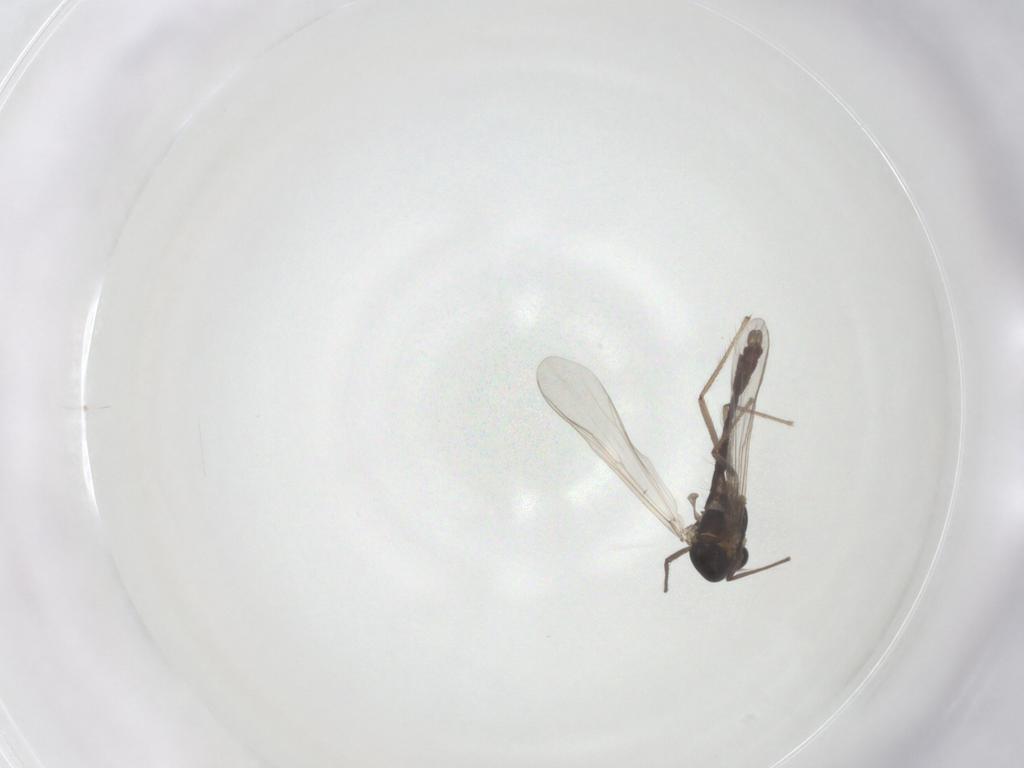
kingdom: Animalia
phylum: Arthropoda
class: Insecta
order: Diptera
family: Chironomidae
